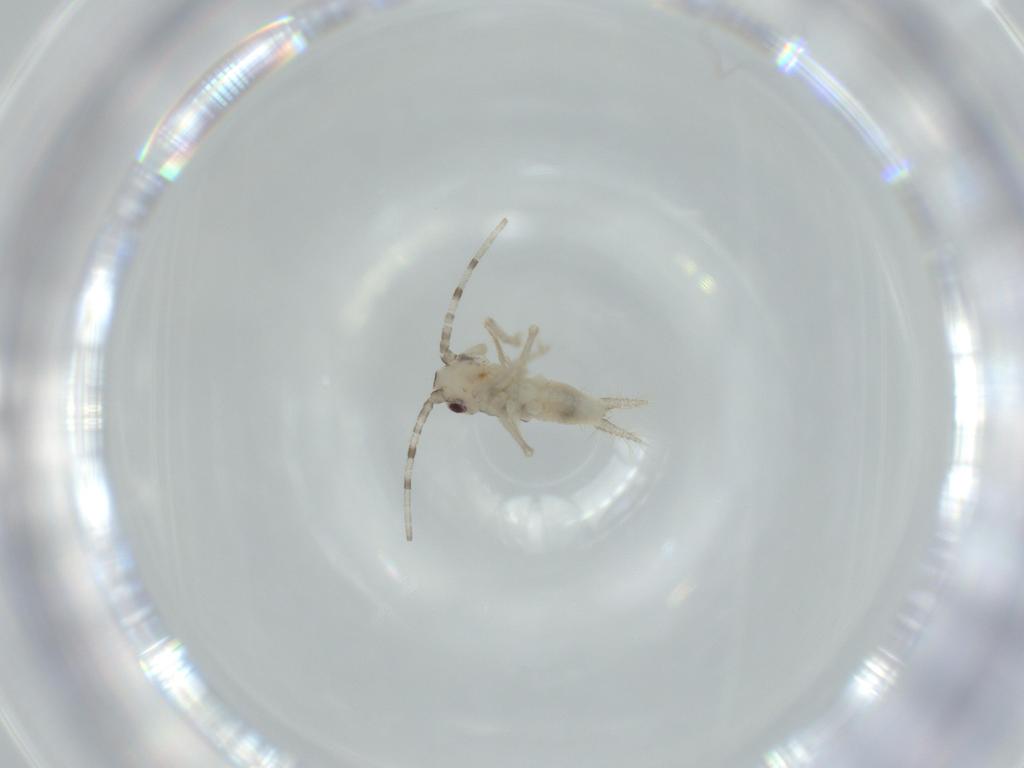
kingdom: Animalia
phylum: Arthropoda
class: Insecta
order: Orthoptera
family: Trigonidiidae
